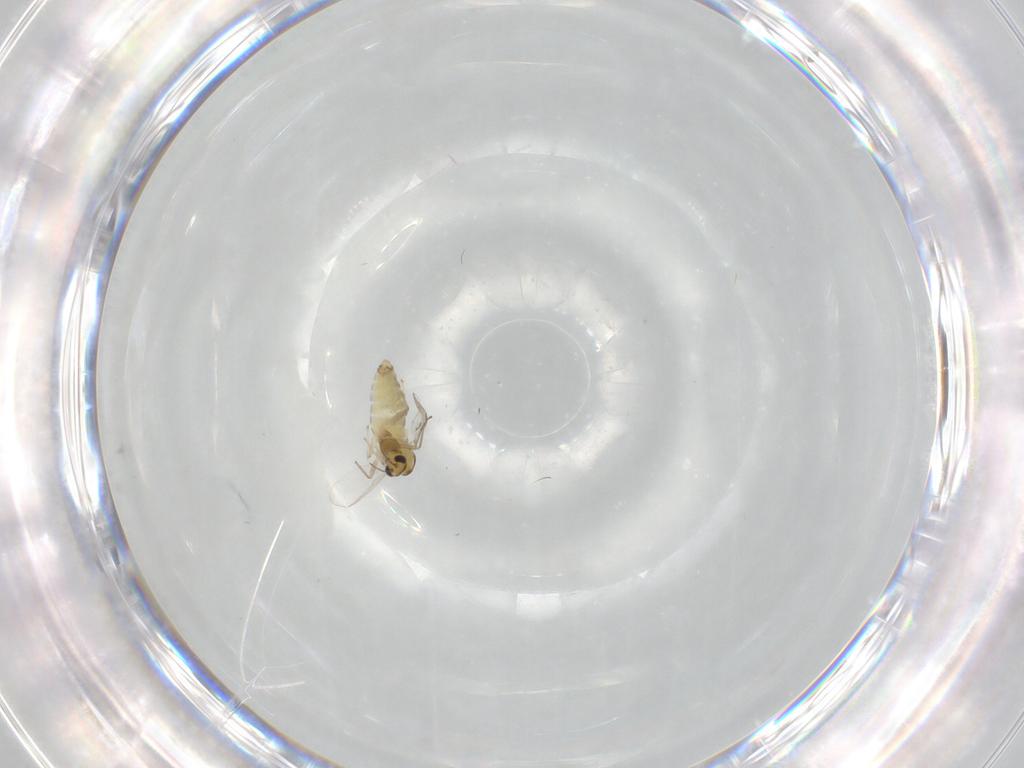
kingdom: Animalia
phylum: Arthropoda
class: Insecta
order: Diptera
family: Chironomidae
